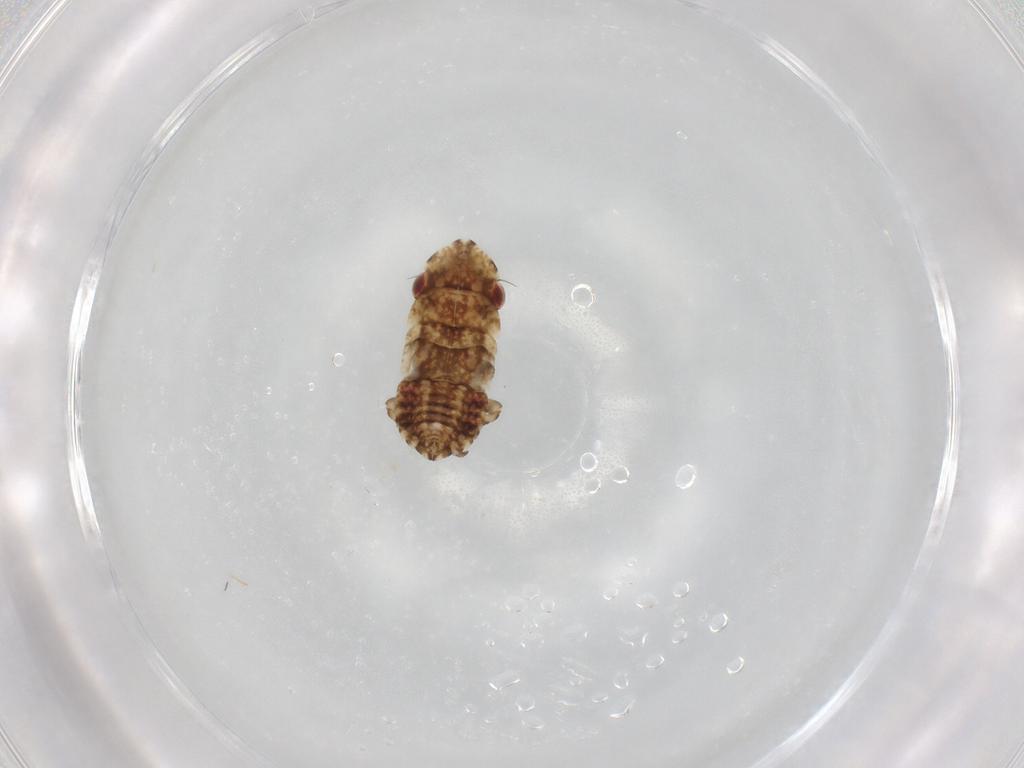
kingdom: Animalia
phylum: Arthropoda
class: Insecta
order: Hemiptera
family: Cicadellidae
